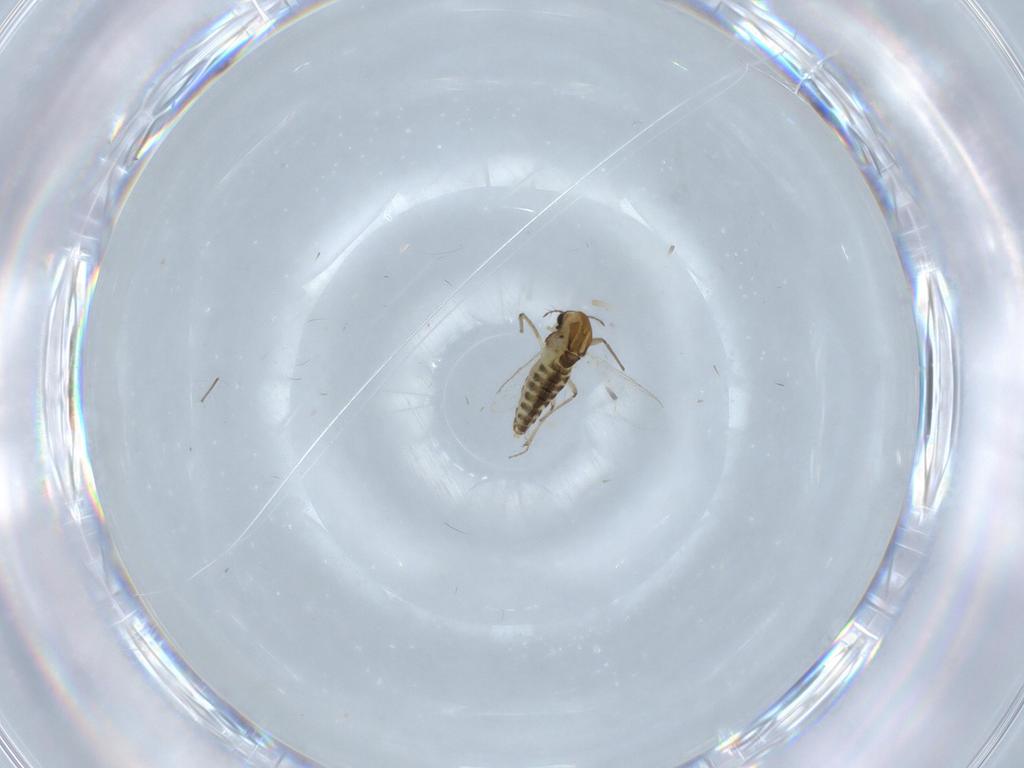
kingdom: Animalia
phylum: Arthropoda
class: Insecta
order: Diptera
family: Chironomidae
